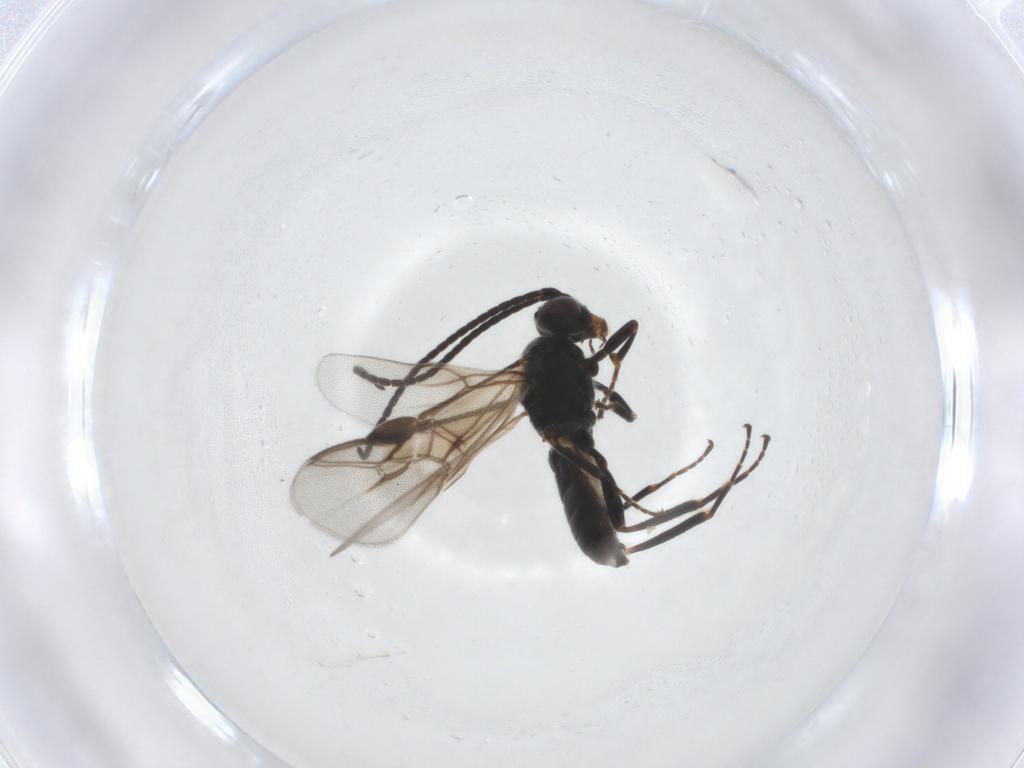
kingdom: Animalia
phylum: Arthropoda
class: Insecta
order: Hymenoptera
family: Braconidae
